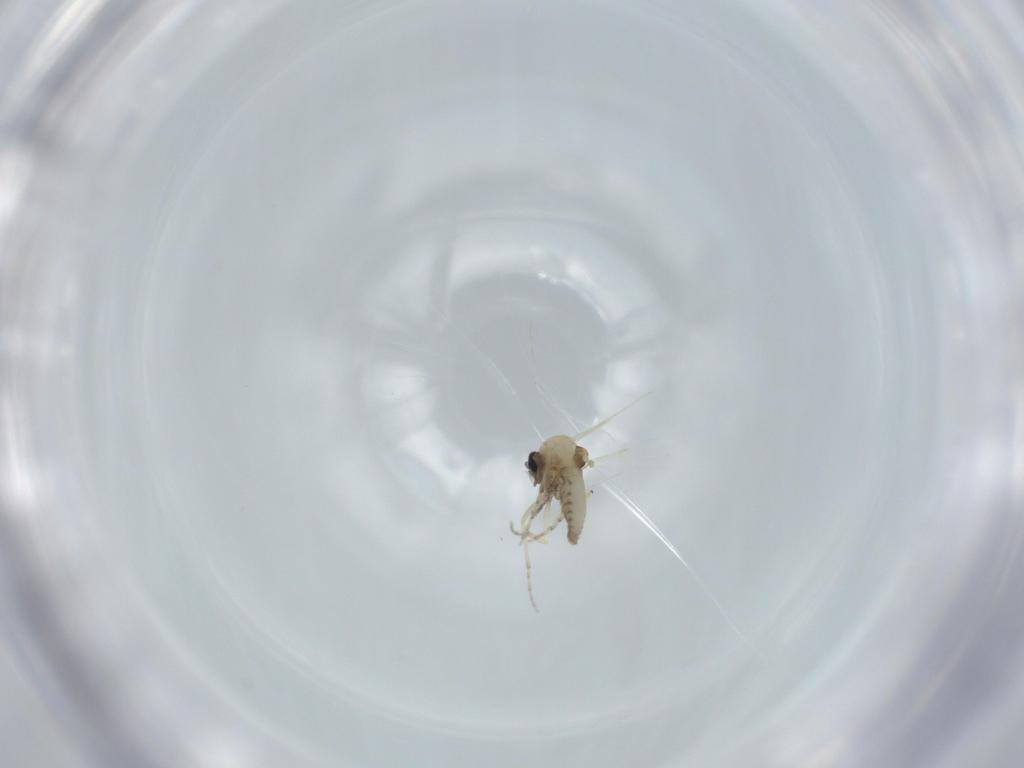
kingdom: Animalia
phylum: Arthropoda
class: Insecta
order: Diptera
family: Ceratopogonidae
